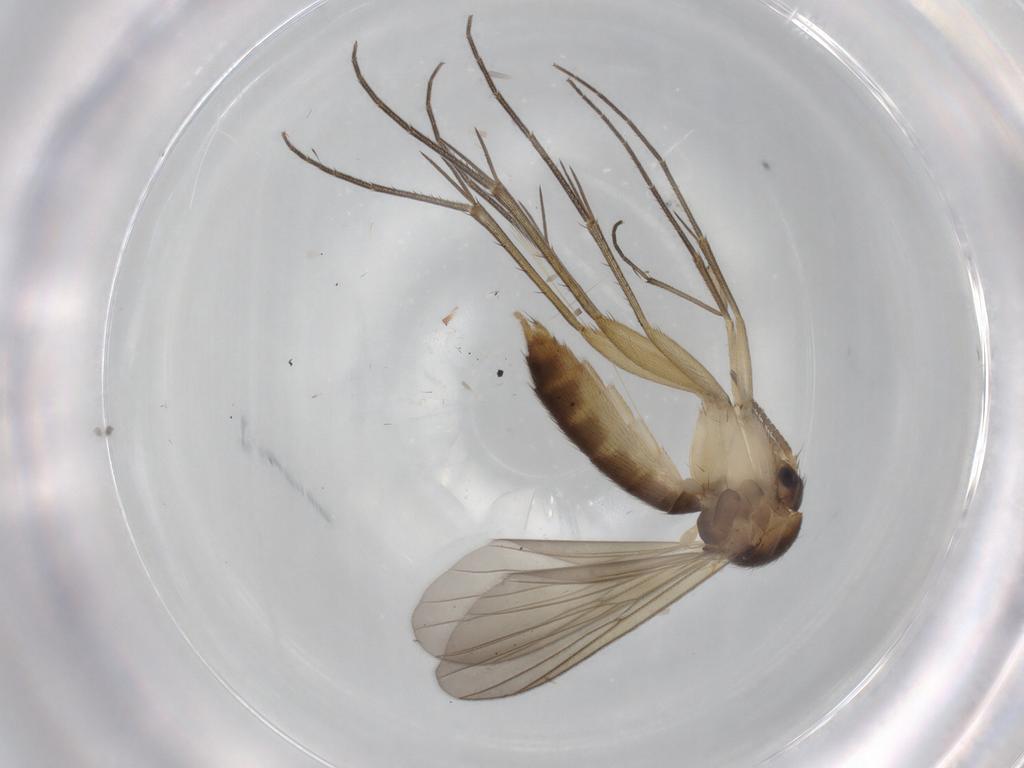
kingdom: Animalia
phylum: Arthropoda
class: Insecta
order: Diptera
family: Mycetophilidae
